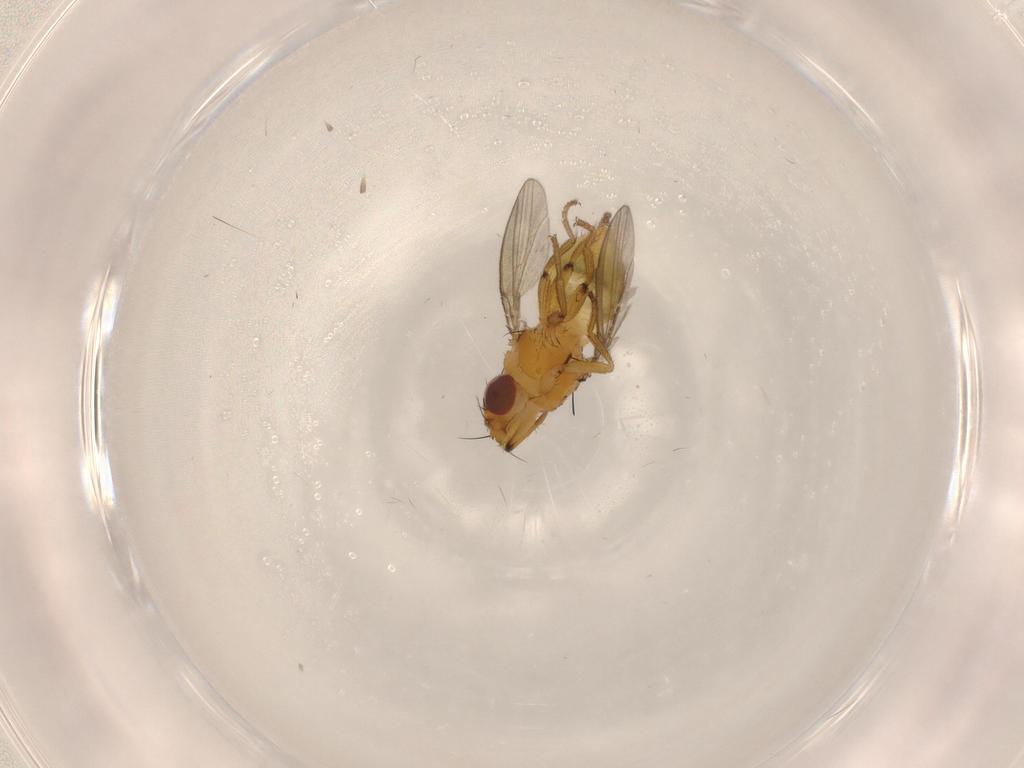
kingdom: Animalia
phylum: Arthropoda
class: Insecta
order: Diptera
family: Milichiidae
